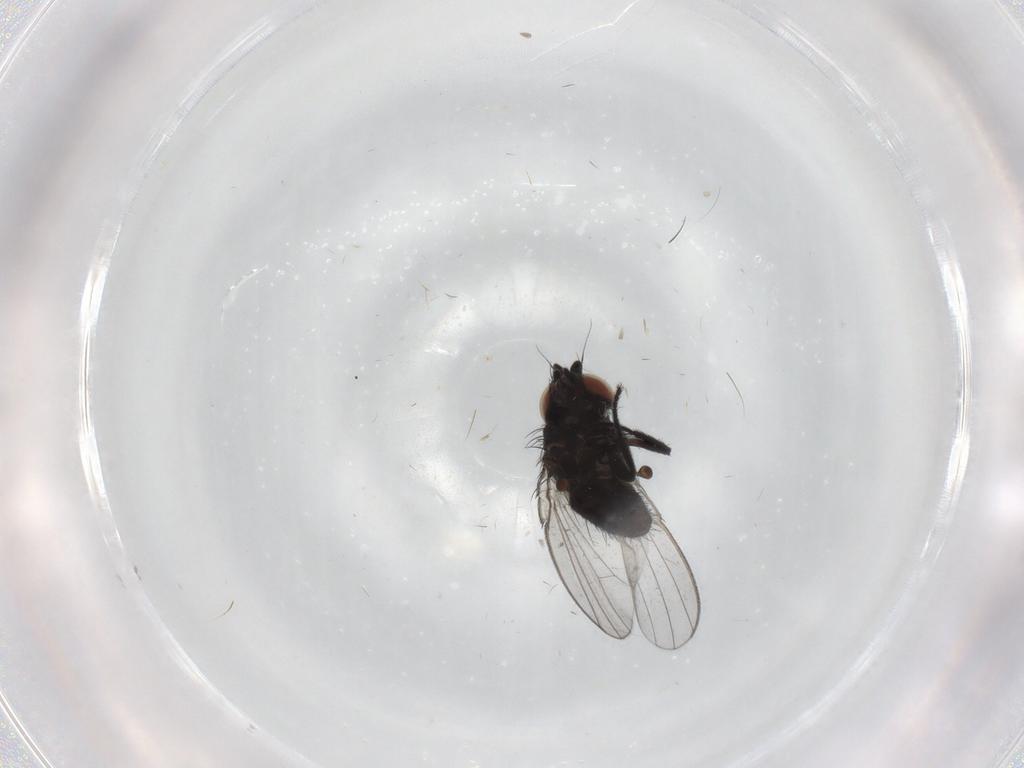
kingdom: Animalia
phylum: Arthropoda
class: Insecta
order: Diptera
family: Milichiidae
